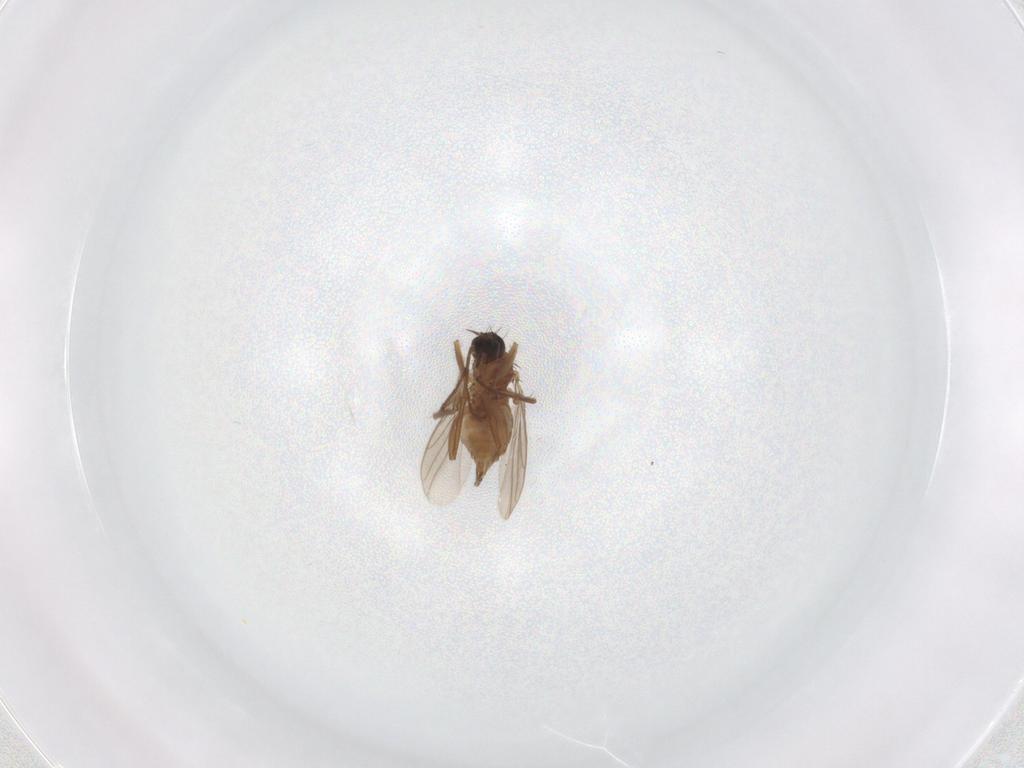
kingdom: Animalia
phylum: Arthropoda
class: Insecta
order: Diptera
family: Hybotidae
